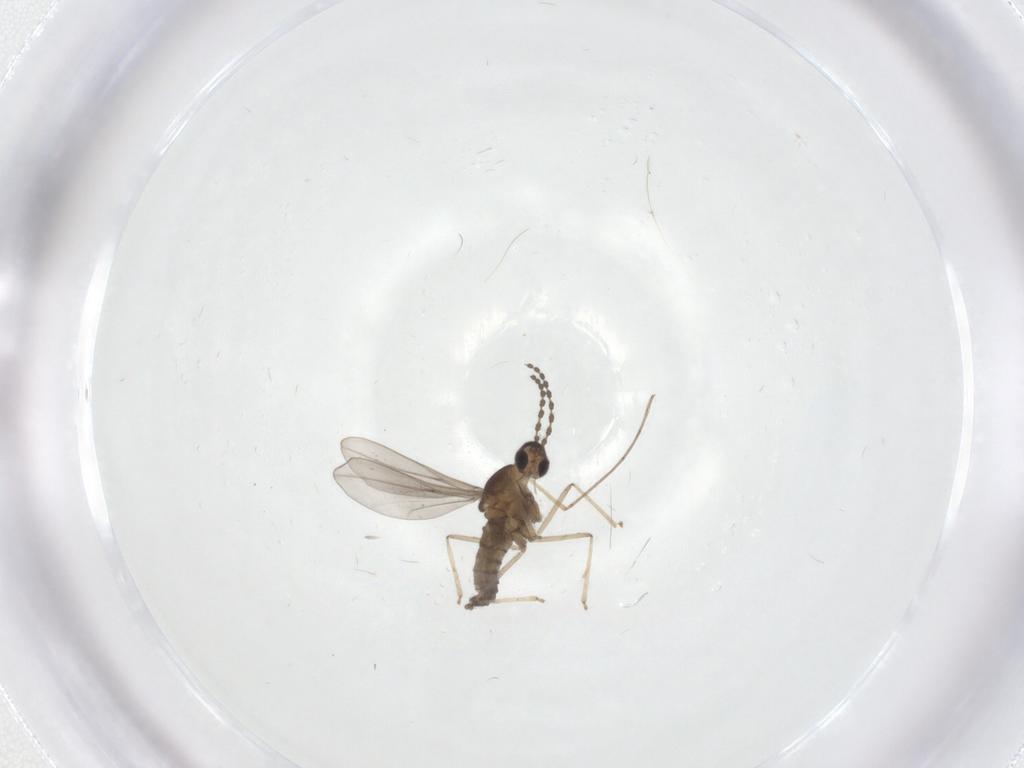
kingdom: Animalia
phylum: Arthropoda
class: Insecta
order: Diptera
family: Cecidomyiidae
